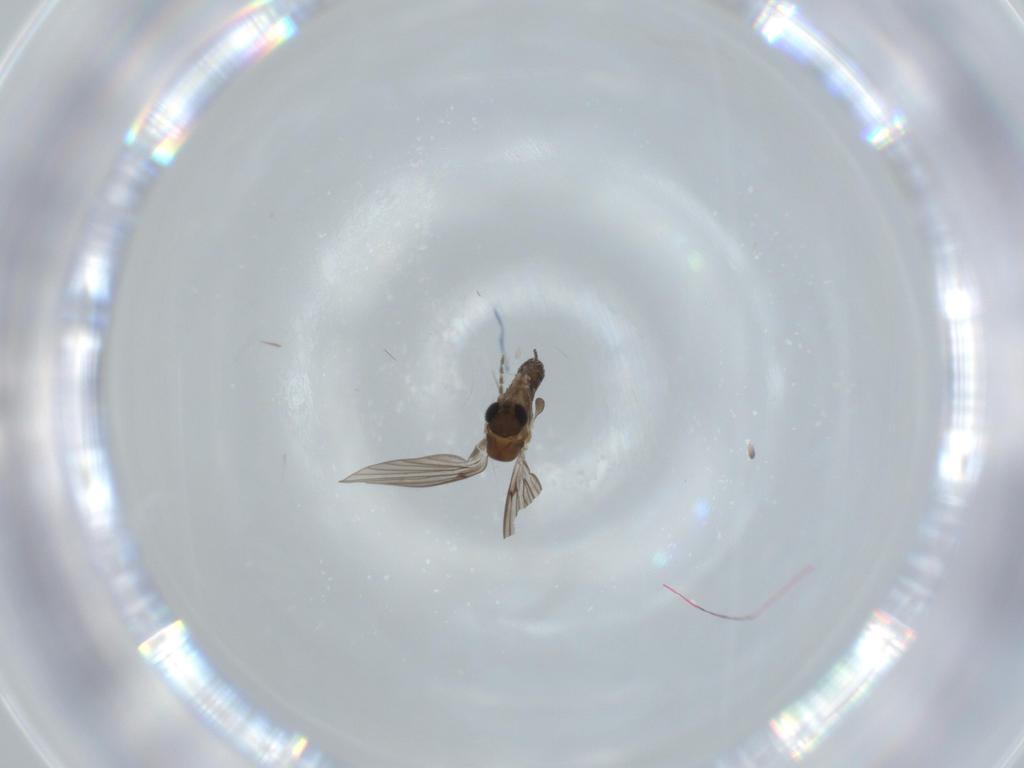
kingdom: Animalia
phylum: Arthropoda
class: Insecta
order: Diptera
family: Psychodidae
